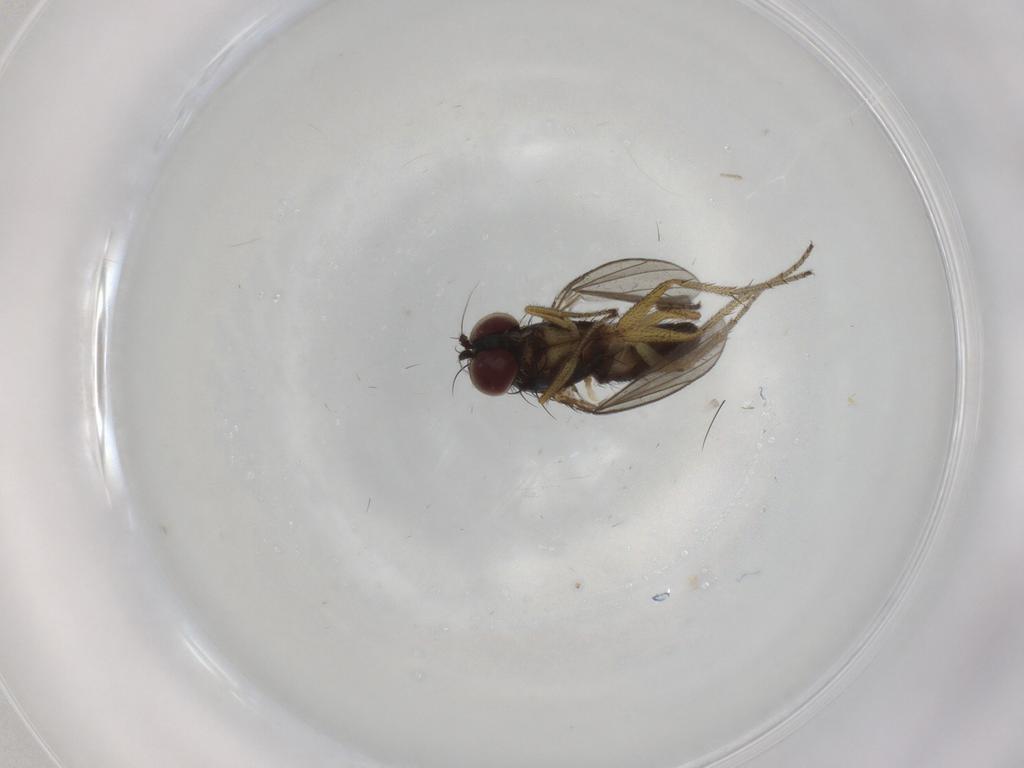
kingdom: Animalia
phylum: Arthropoda
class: Insecta
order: Diptera
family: Dolichopodidae
